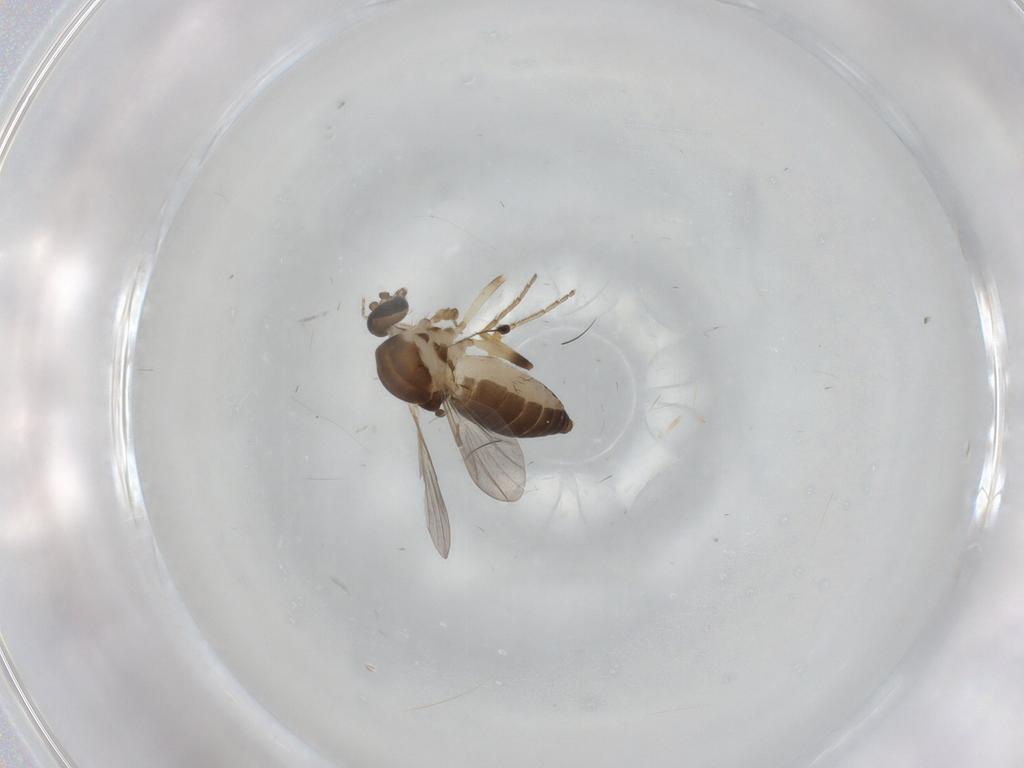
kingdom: Animalia
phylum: Arthropoda
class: Insecta
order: Diptera
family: Ceratopogonidae
